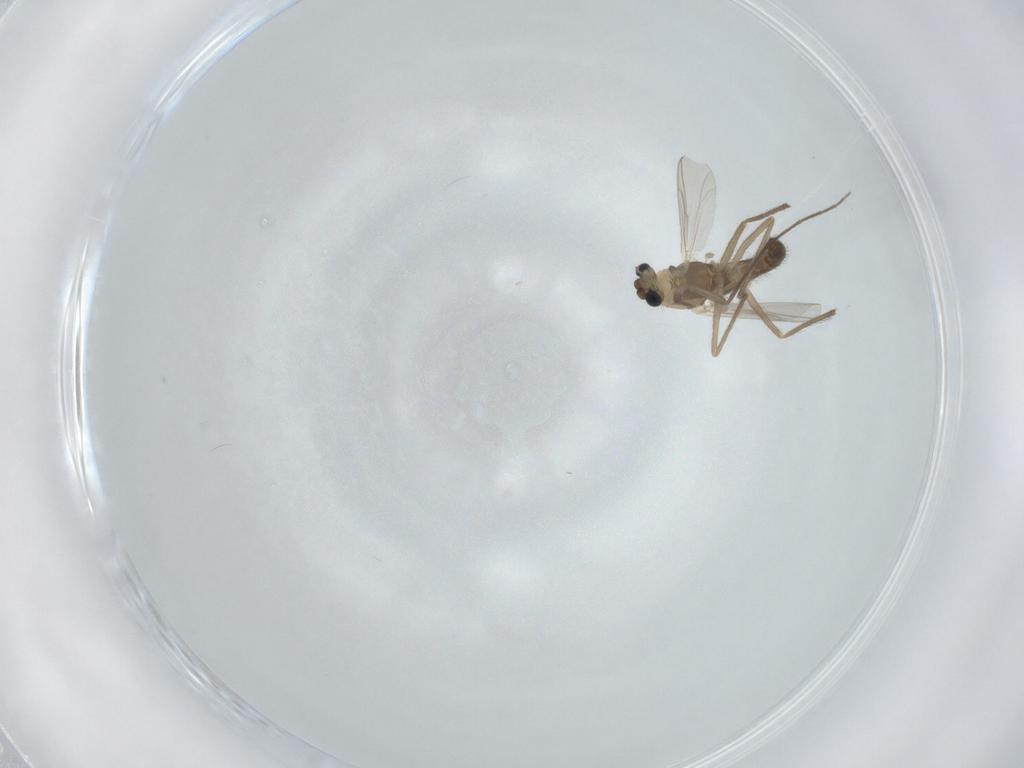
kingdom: Animalia
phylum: Arthropoda
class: Insecta
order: Diptera
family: Chironomidae
